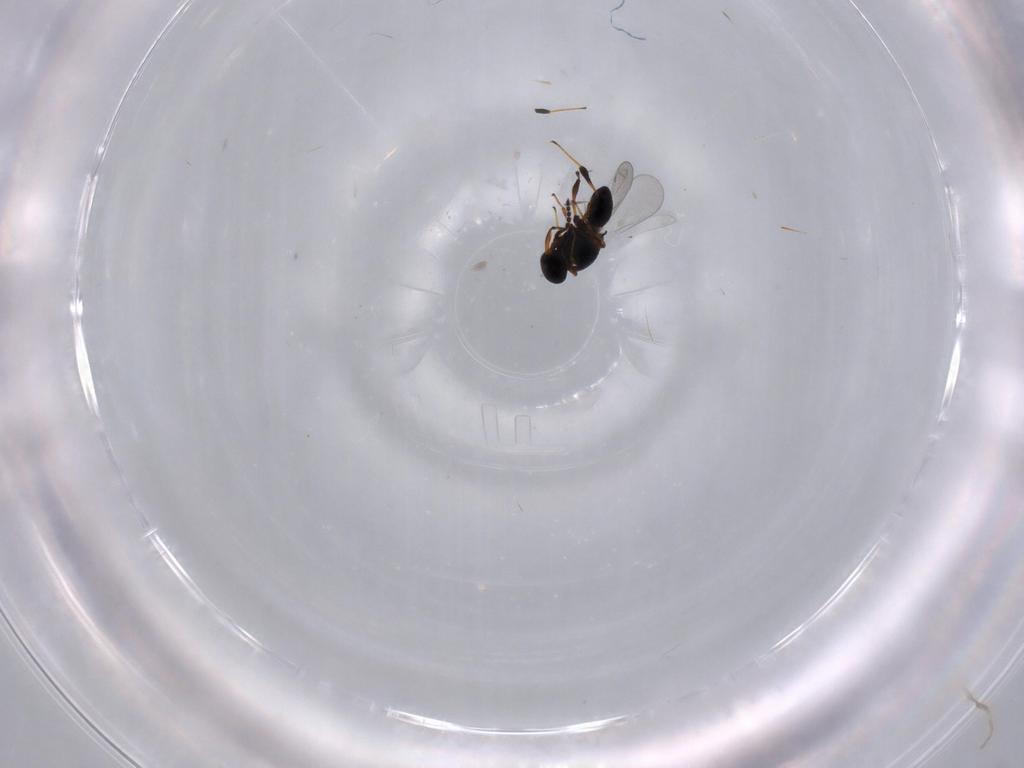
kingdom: Animalia
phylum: Arthropoda
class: Insecta
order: Hymenoptera
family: Platygastridae
